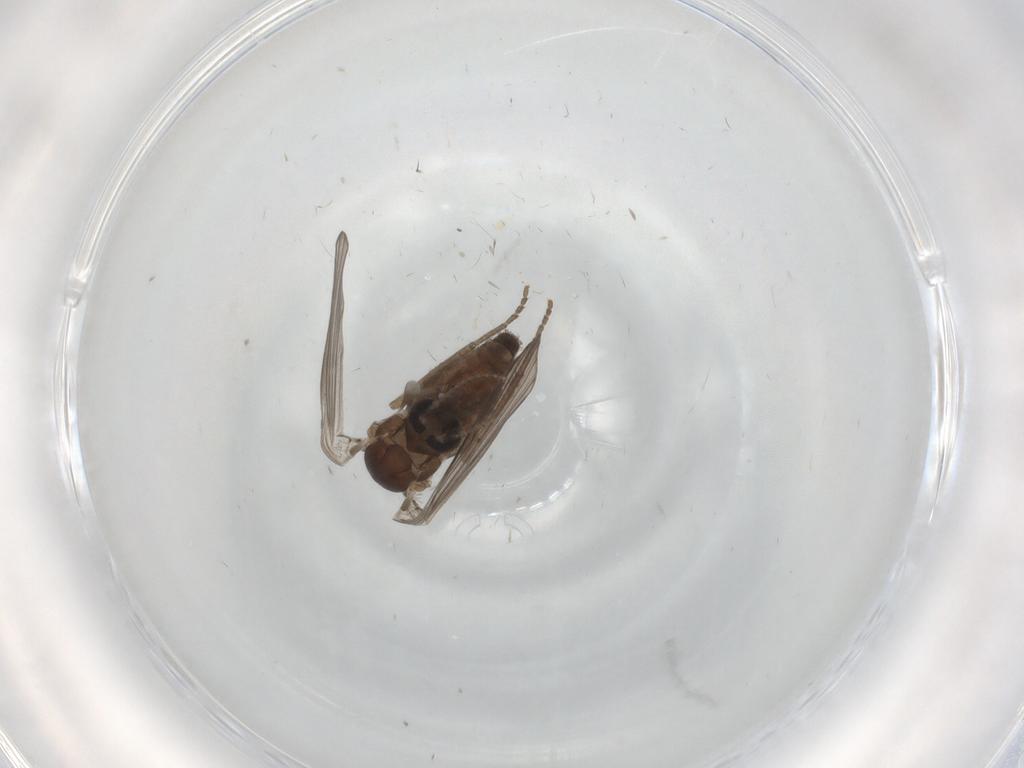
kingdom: Animalia
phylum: Arthropoda
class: Insecta
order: Diptera
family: Psychodidae
